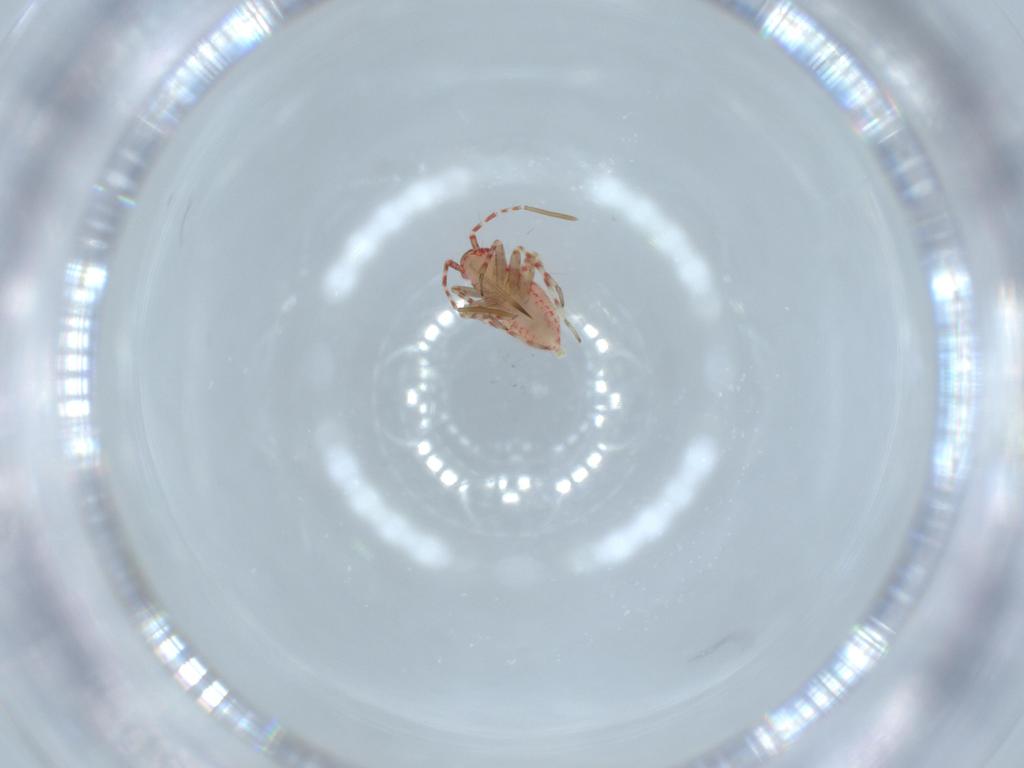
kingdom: Animalia
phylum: Arthropoda
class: Insecta
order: Hemiptera
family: Miridae
